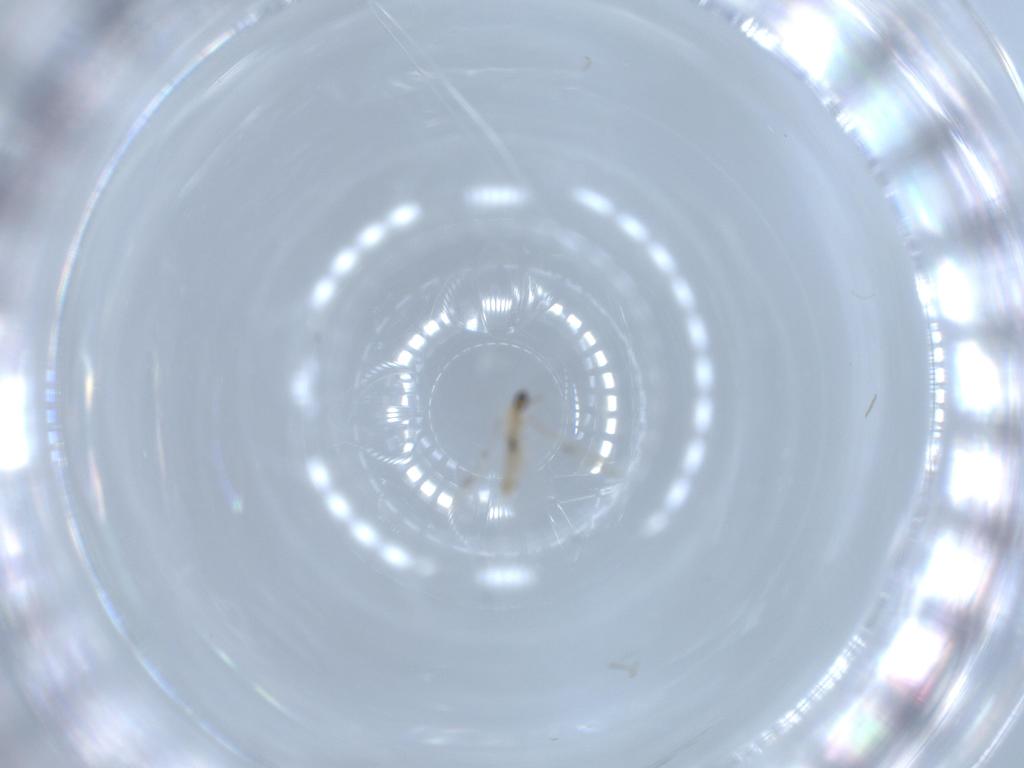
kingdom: Animalia
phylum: Arthropoda
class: Insecta
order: Diptera
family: Cecidomyiidae
